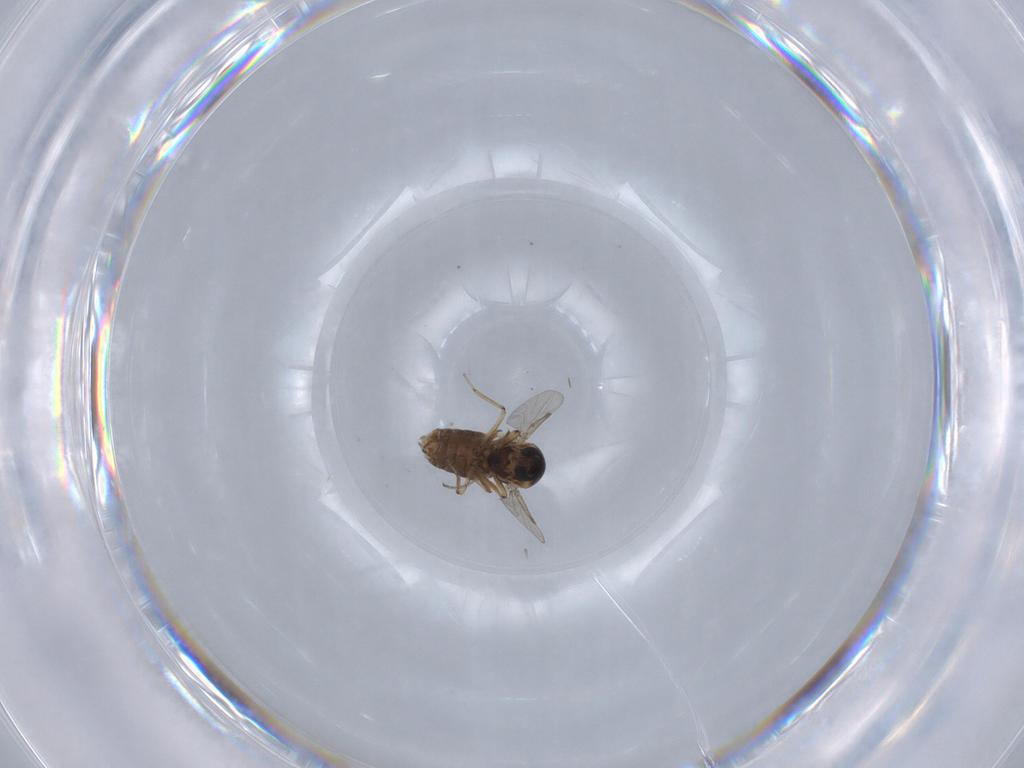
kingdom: Animalia
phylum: Arthropoda
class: Insecta
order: Diptera
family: Ceratopogonidae
